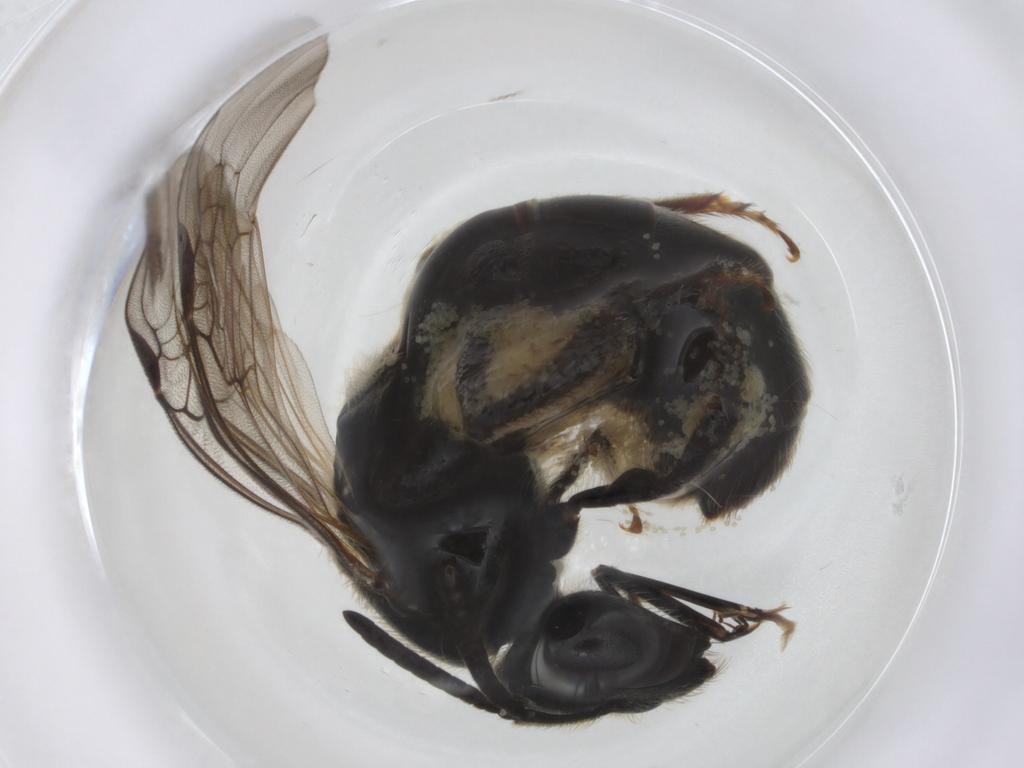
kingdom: Animalia
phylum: Arthropoda
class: Insecta
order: Hymenoptera
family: Halictidae
